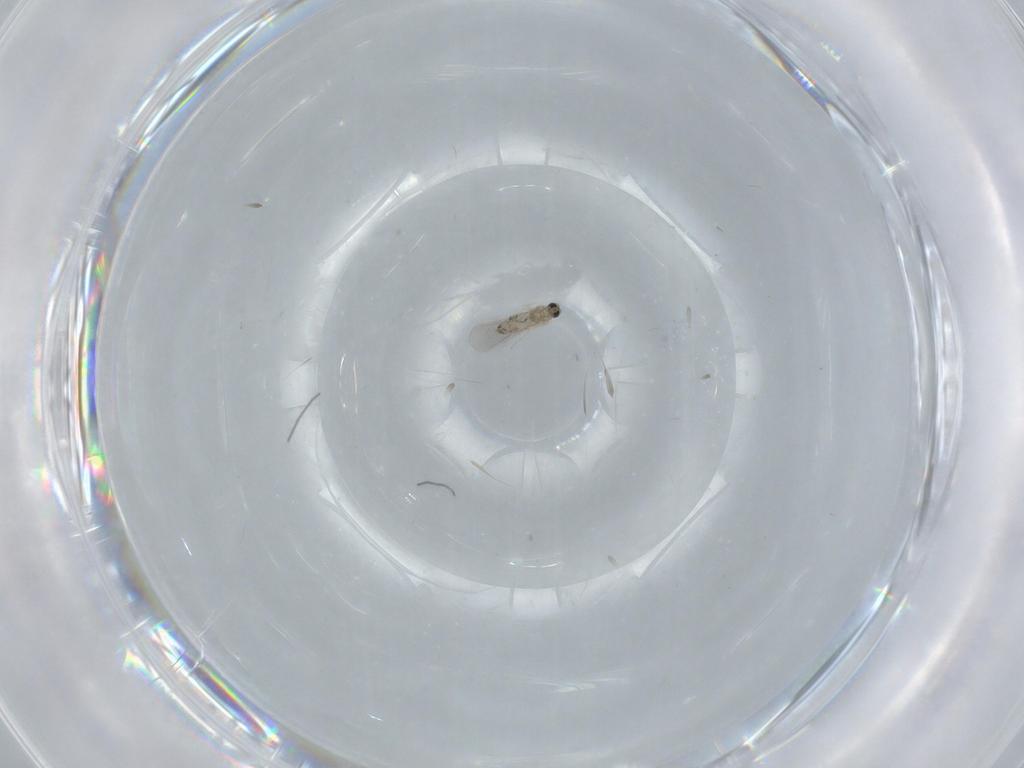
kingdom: Animalia
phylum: Arthropoda
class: Insecta
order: Diptera
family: Cecidomyiidae
